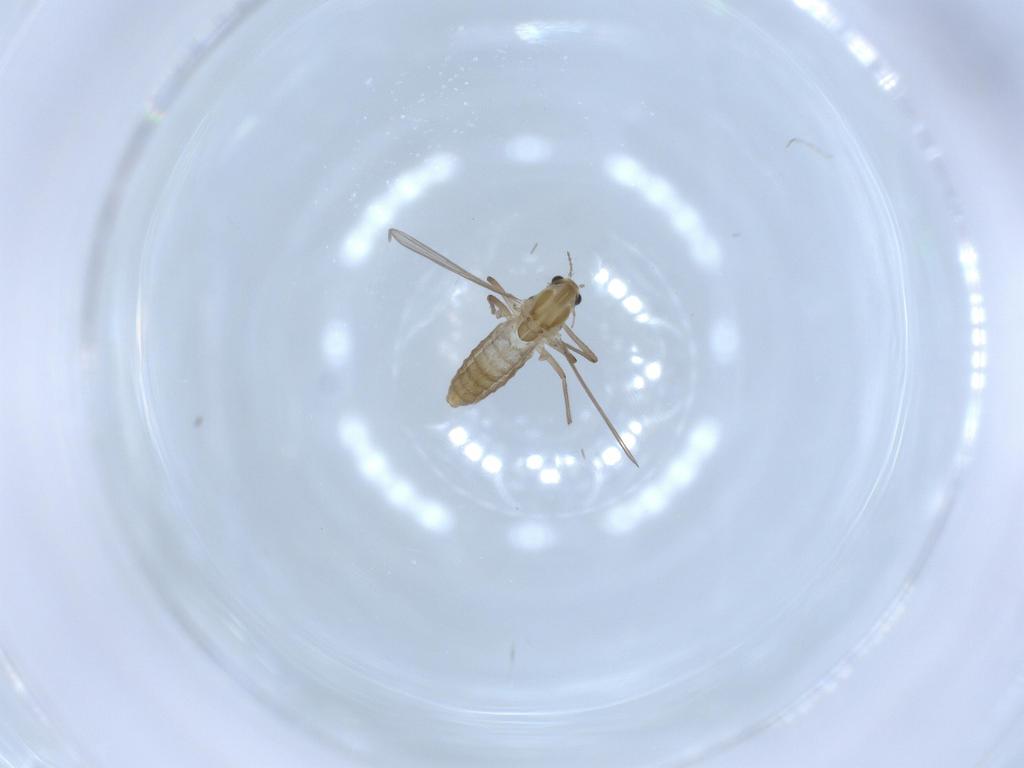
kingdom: Animalia
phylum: Arthropoda
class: Insecta
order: Diptera
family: Chironomidae
